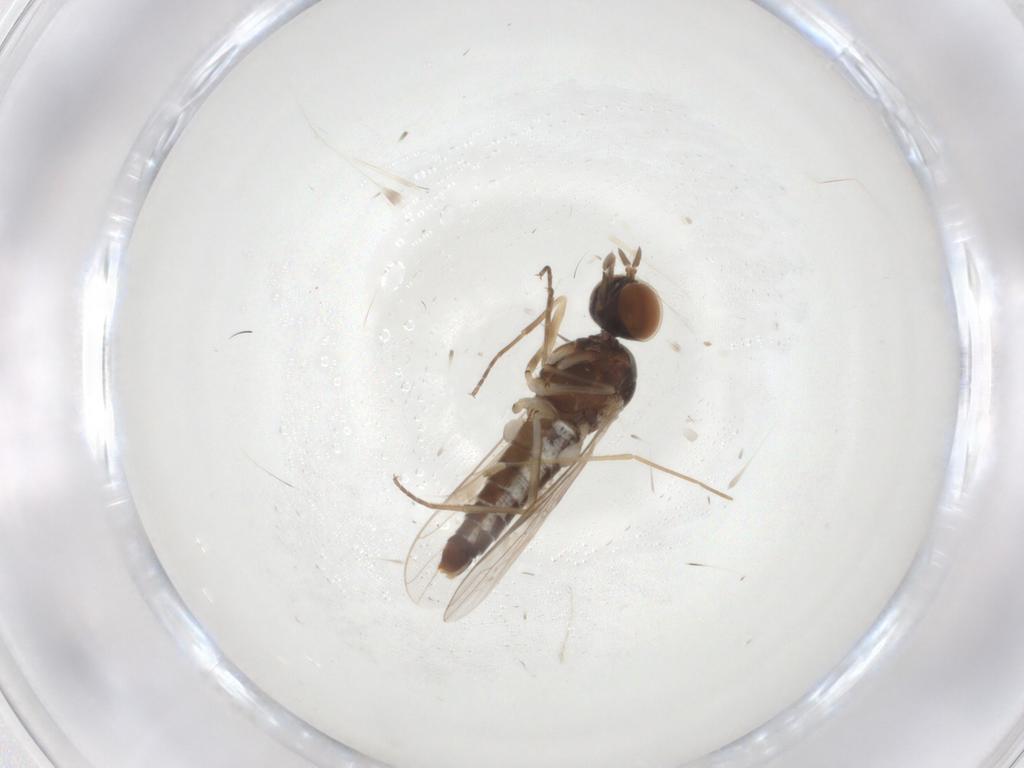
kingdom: Animalia
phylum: Arthropoda
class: Insecta
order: Diptera
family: Scenopinidae
